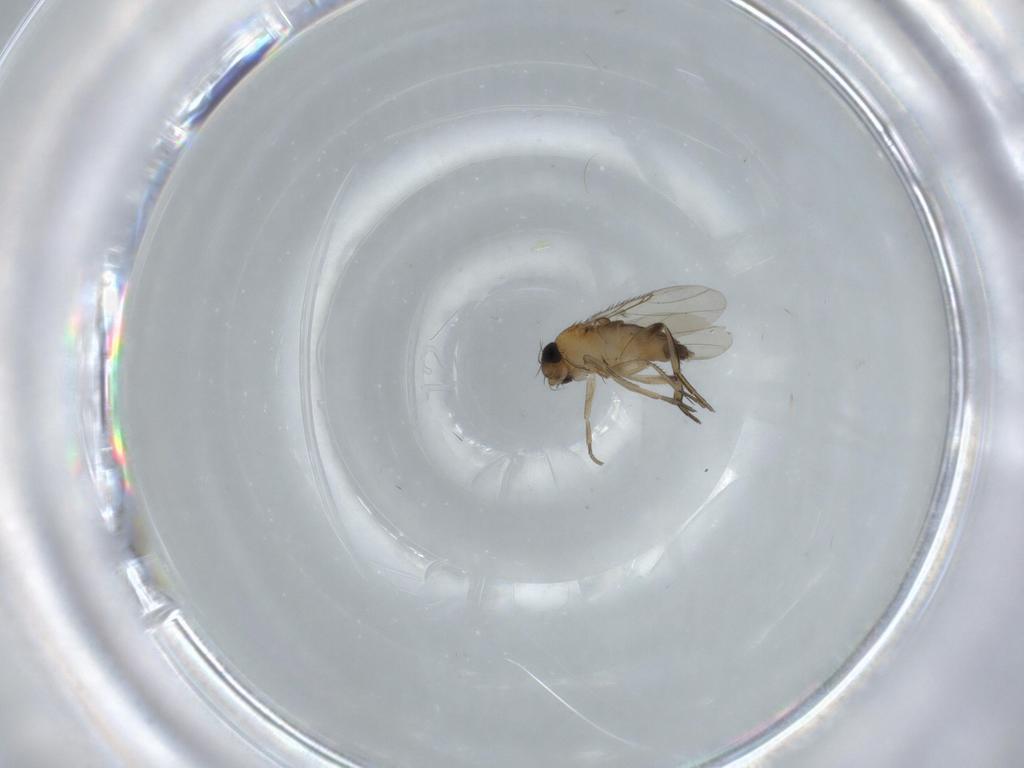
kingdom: Animalia
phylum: Arthropoda
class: Insecta
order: Diptera
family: Phoridae
